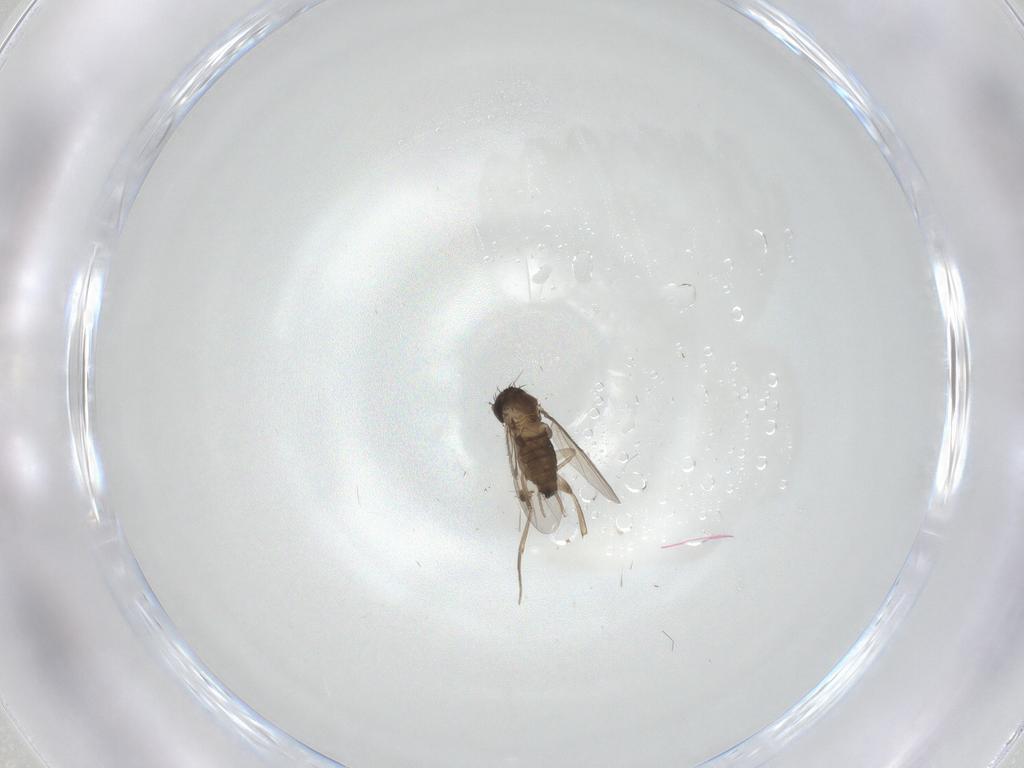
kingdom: Animalia
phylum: Arthropoda
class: Insecta
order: Diptera
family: Phoridae
